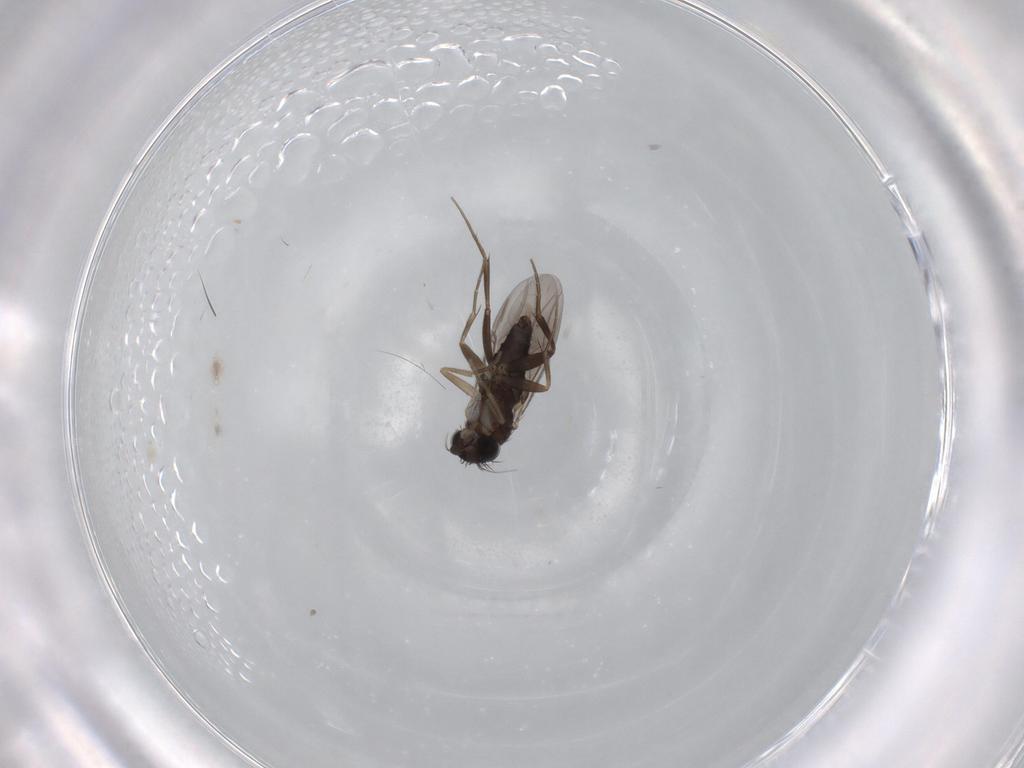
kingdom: Animalia
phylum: Arthropoda
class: Insecta
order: Diptera
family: Phoridae
